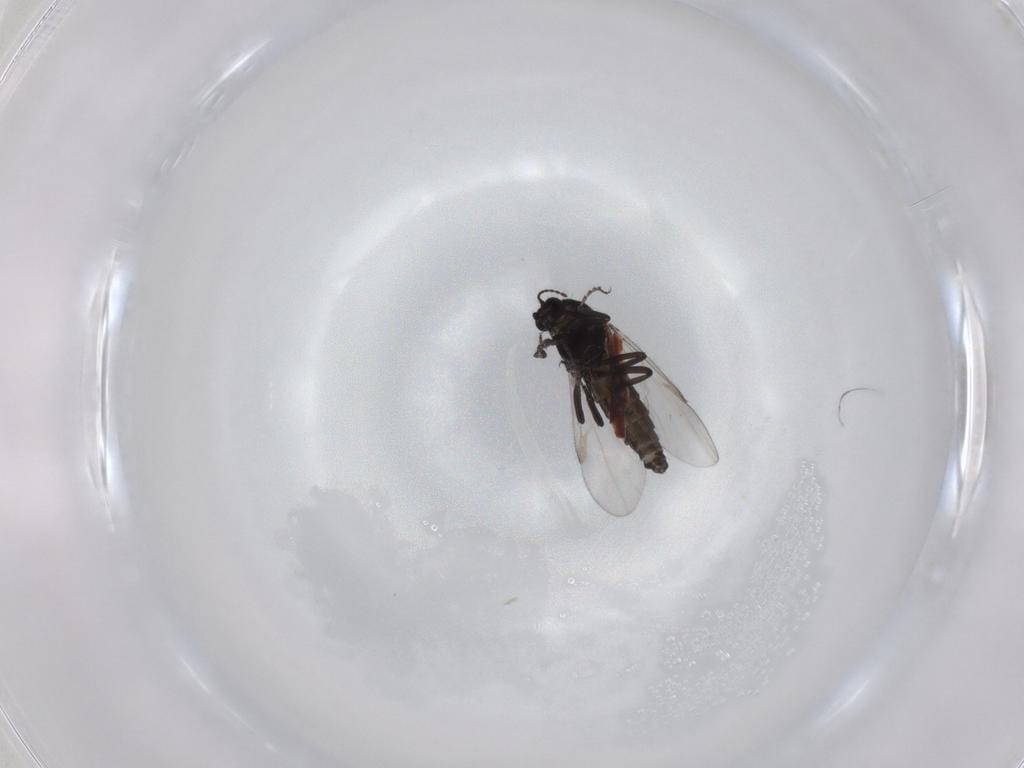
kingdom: Animalia
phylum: Arthropoda
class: Insecta
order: Diptera
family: Ceratopogonidae
